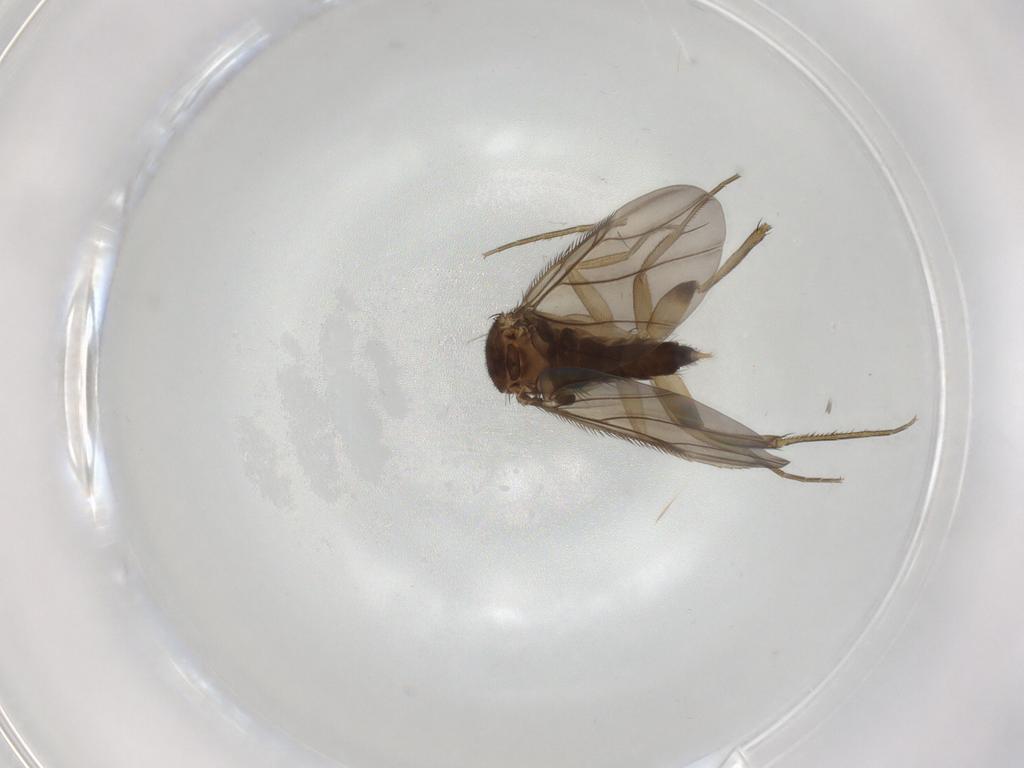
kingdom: Animalia
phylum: Arthropoda
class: Insecta
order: Diptera
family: Phoridae
